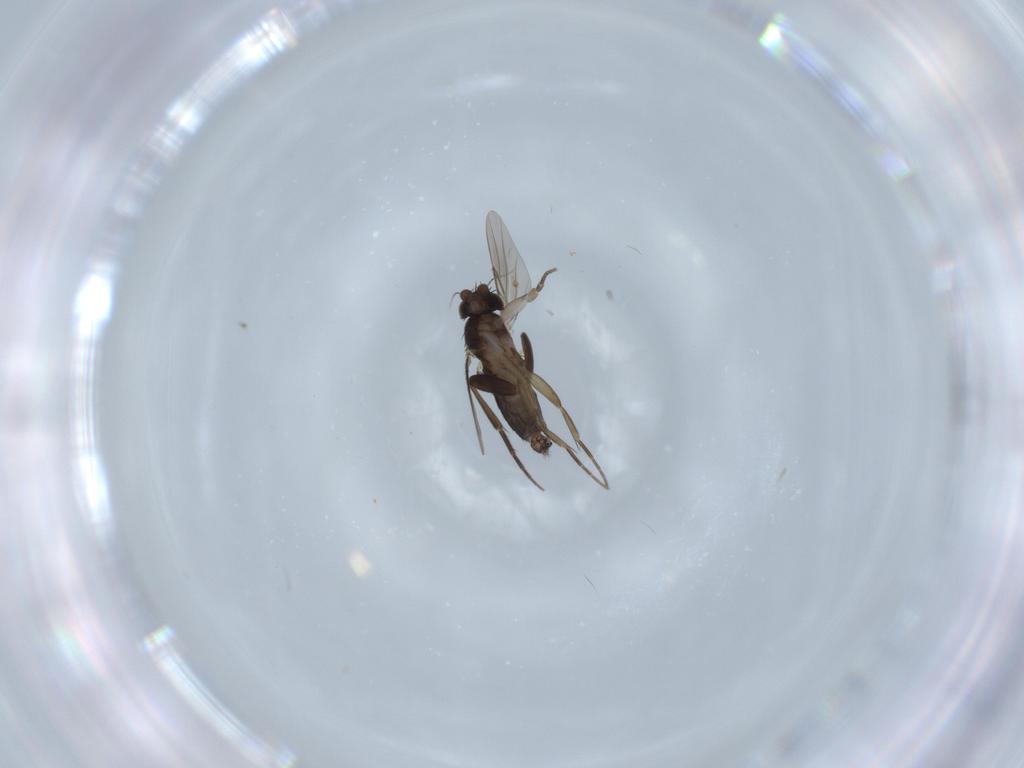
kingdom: Animalia
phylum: Arthropoda
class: Insecta
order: Diptera
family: Phoridae
